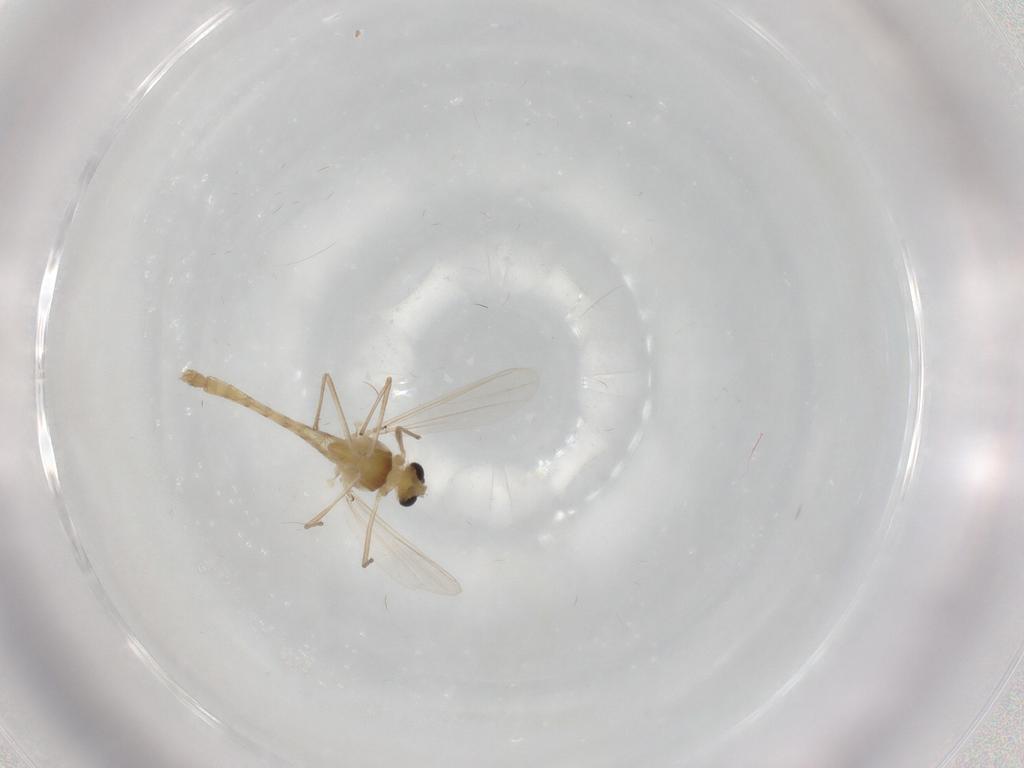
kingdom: Animalia
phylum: Arthropoda
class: Insecta
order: Diptera
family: Chironomidae
